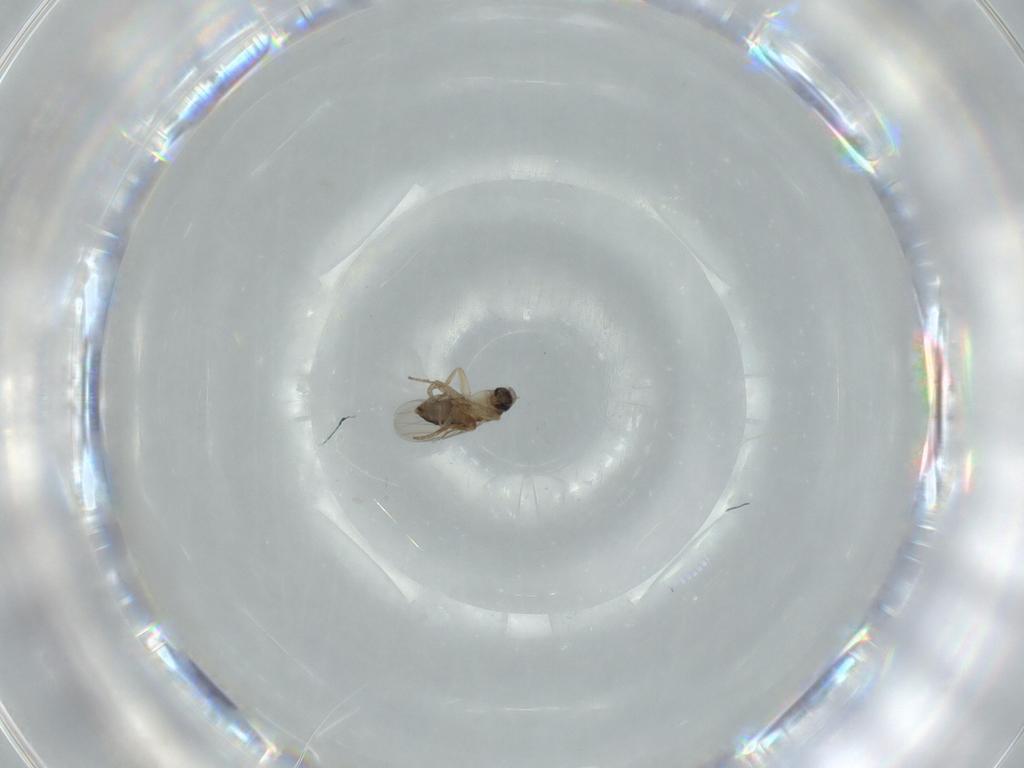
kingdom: Animalia
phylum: Arthropoda
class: Insecta
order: Diptera
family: Phoridae
